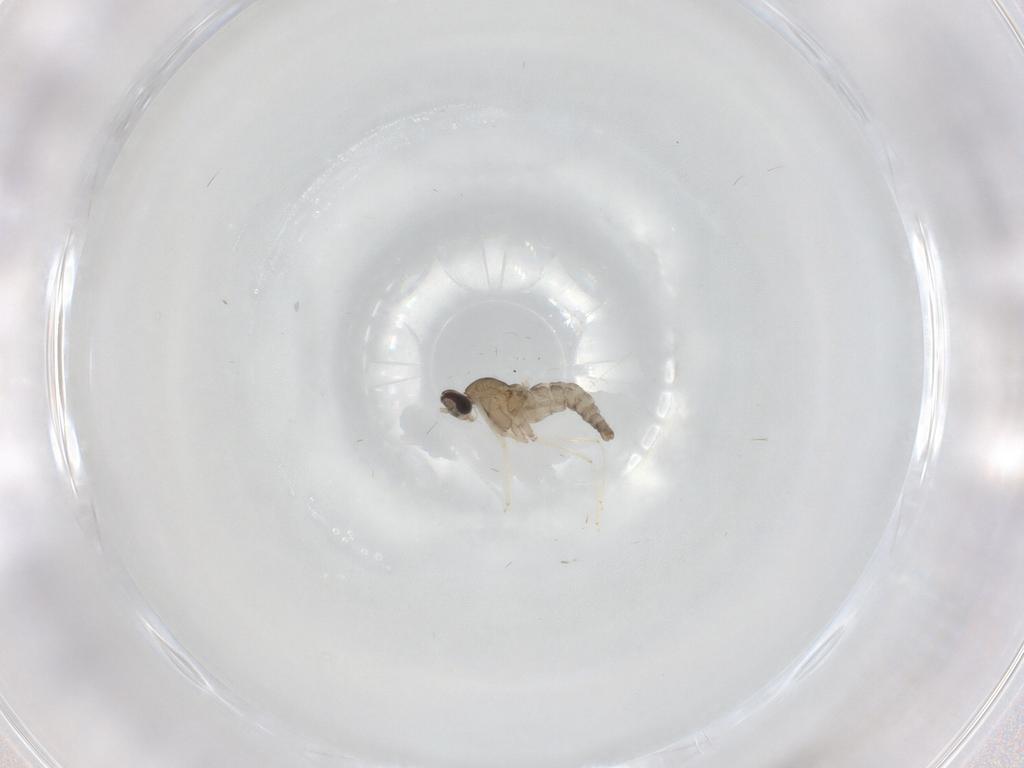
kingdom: Animalia
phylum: Arthropoda
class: Insecta
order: Diptera
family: Cecidomyiidae
